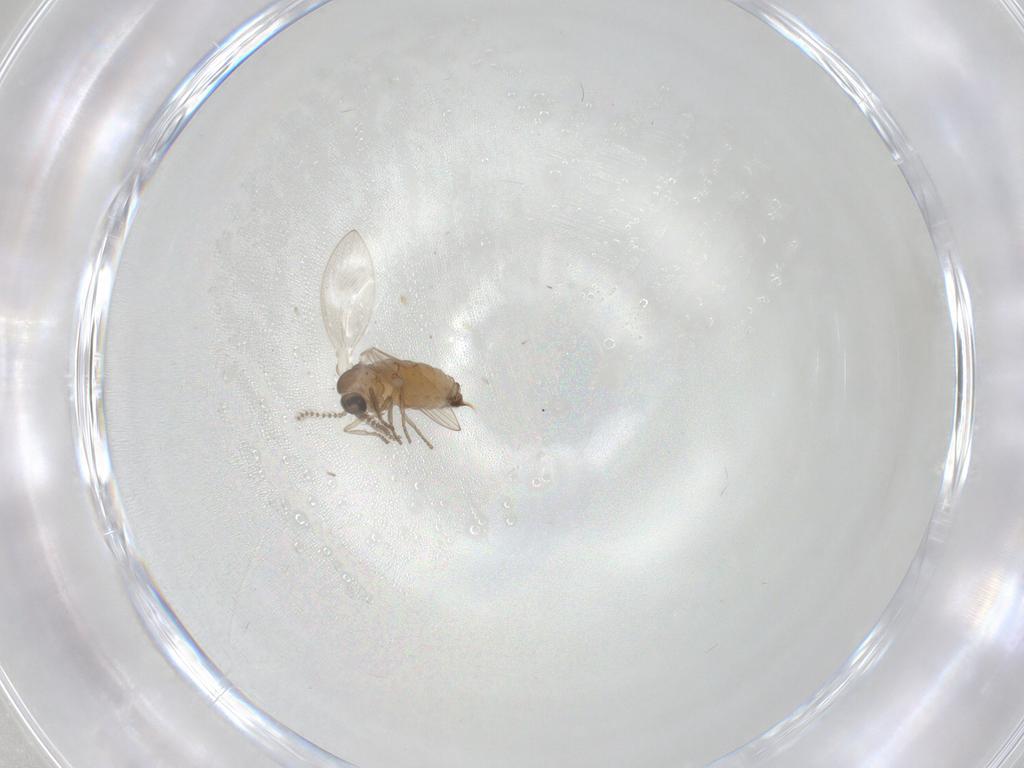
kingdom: Animalia
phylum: Arthropoda
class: Insecta
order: Diptera
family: Psychodidae
